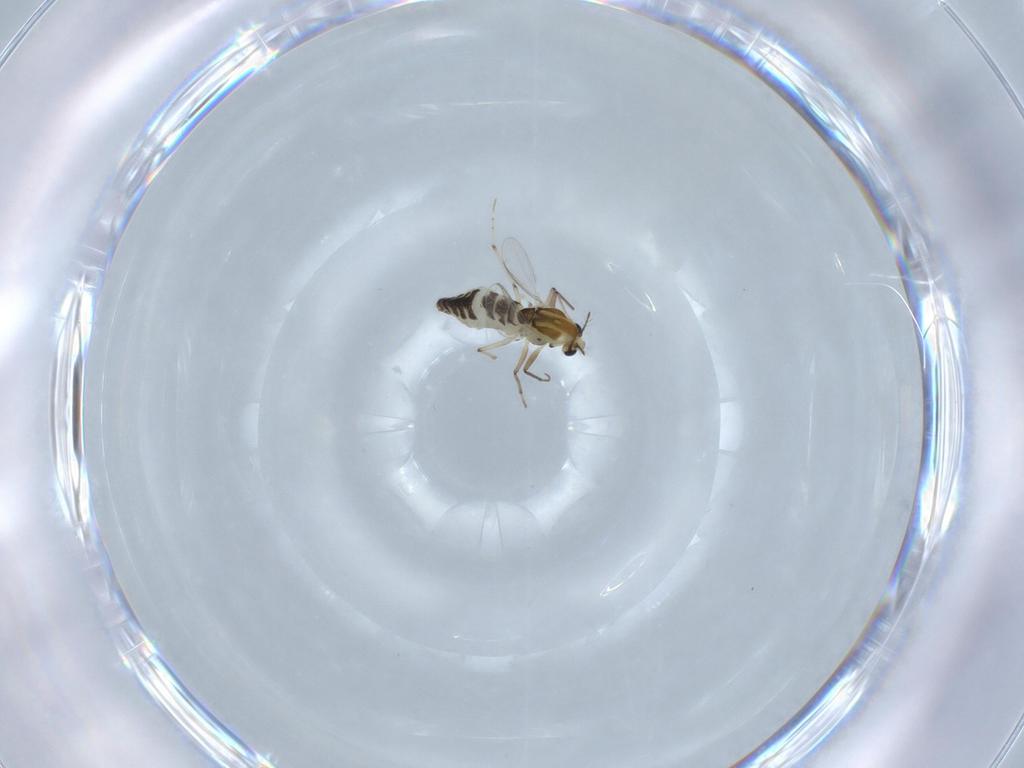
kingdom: Animalia
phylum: Arthropoda
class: Insecta
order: Diptera
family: Chironomidae
